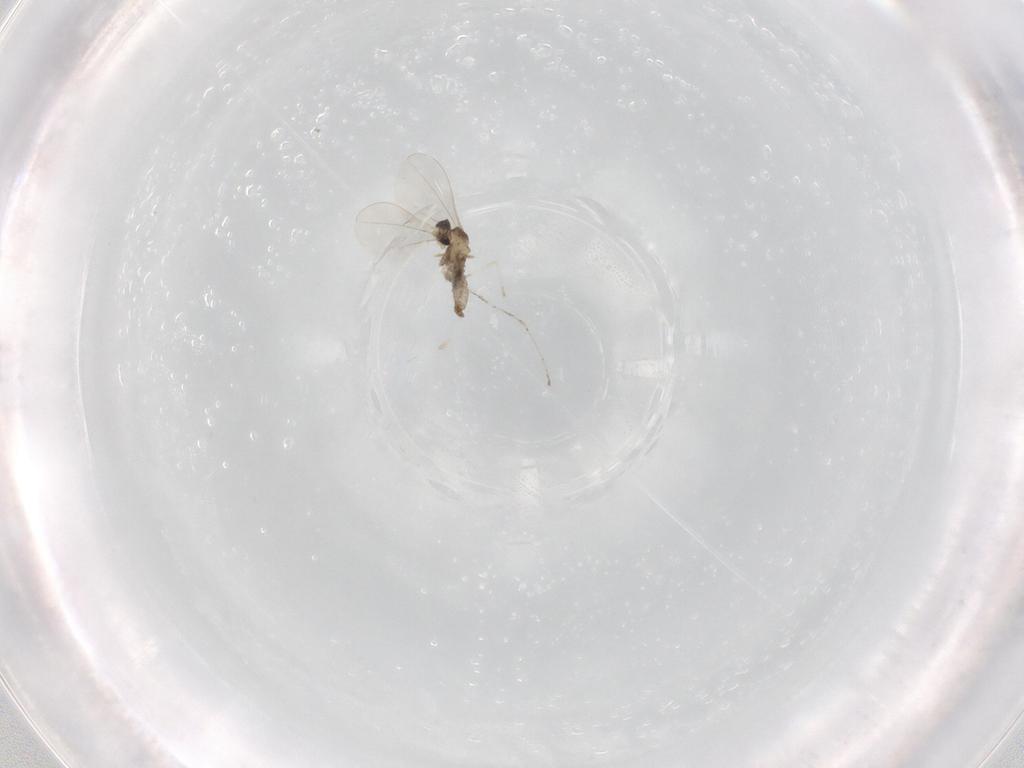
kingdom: Animalia
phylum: Arthropoda
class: Insecta
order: Diptera
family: Cecidomyiidae
